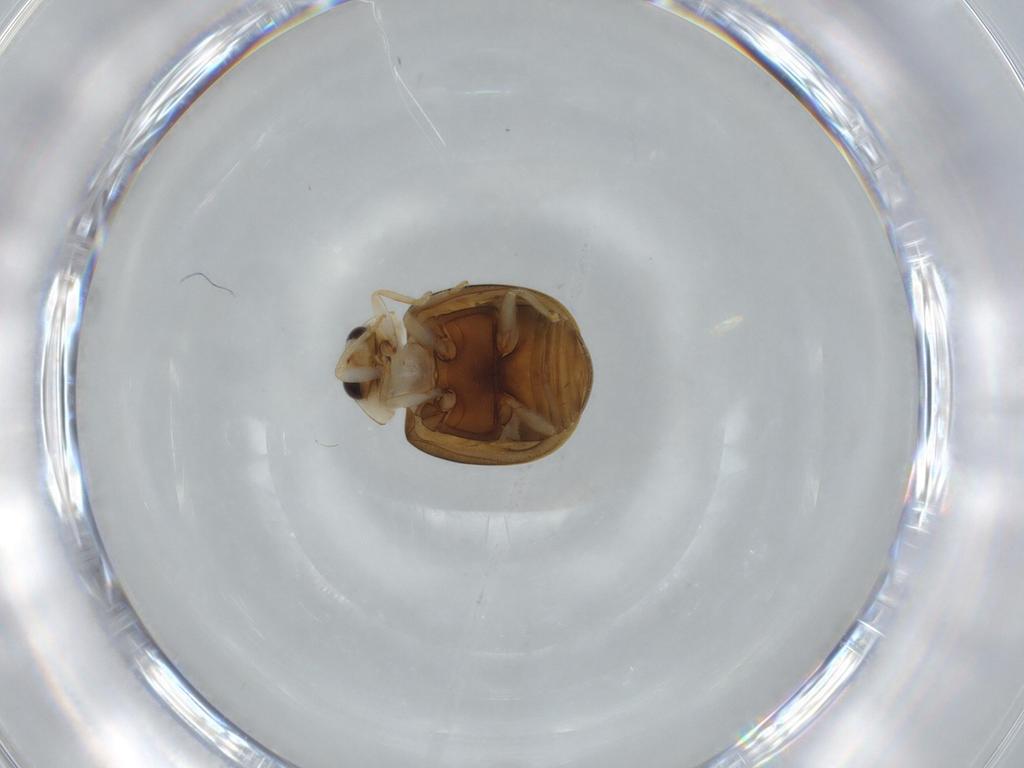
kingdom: Animalia
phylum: Arthropoda
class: Insecta
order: Coleoptera
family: Coccinellidae
